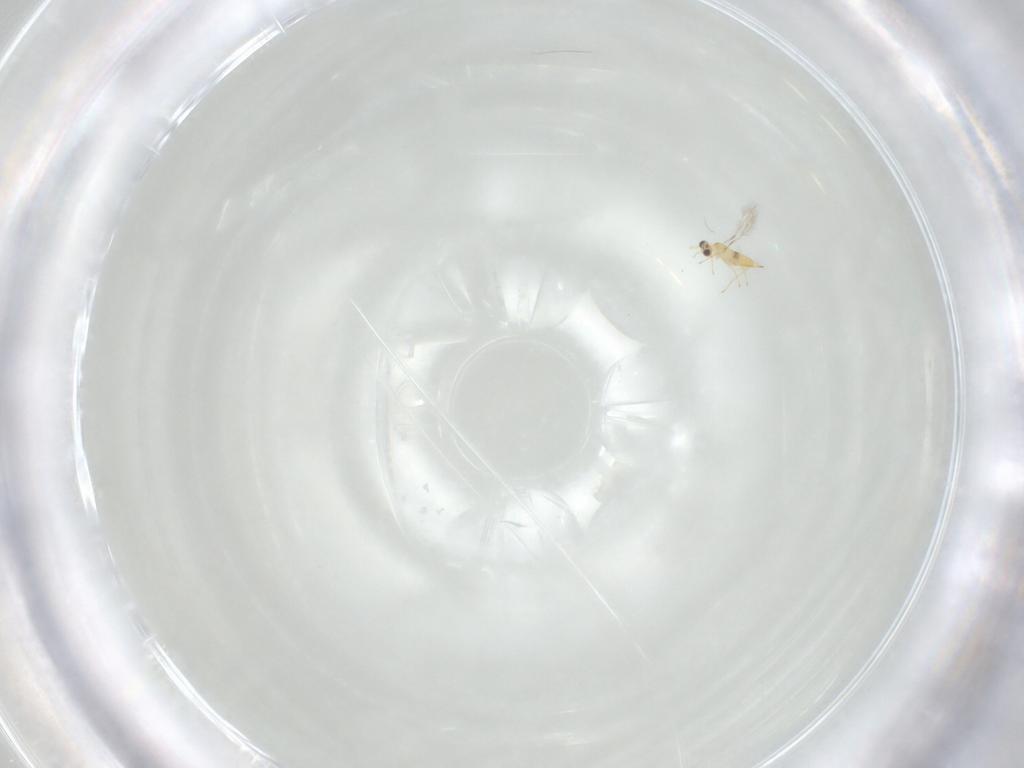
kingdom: Animalia
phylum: Arthropoda
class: Insecta
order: Hymenoptera
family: Mymaridae
